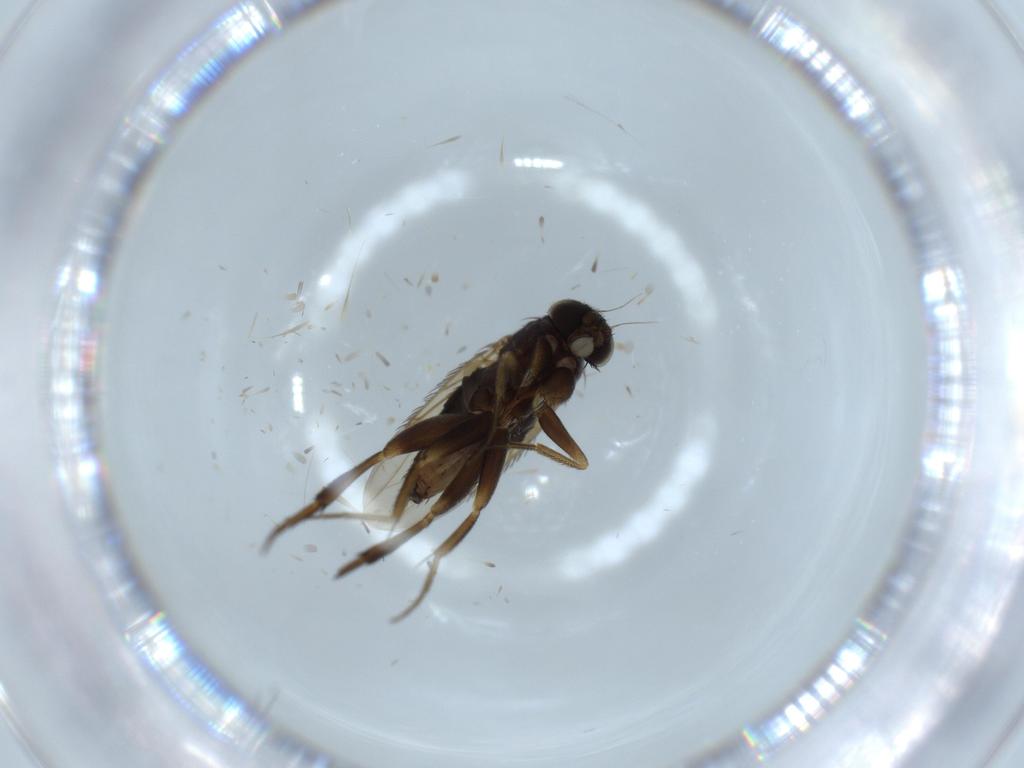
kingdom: Animalia
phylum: Arthropoda
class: Insecta
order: Diptera
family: Phoridae
